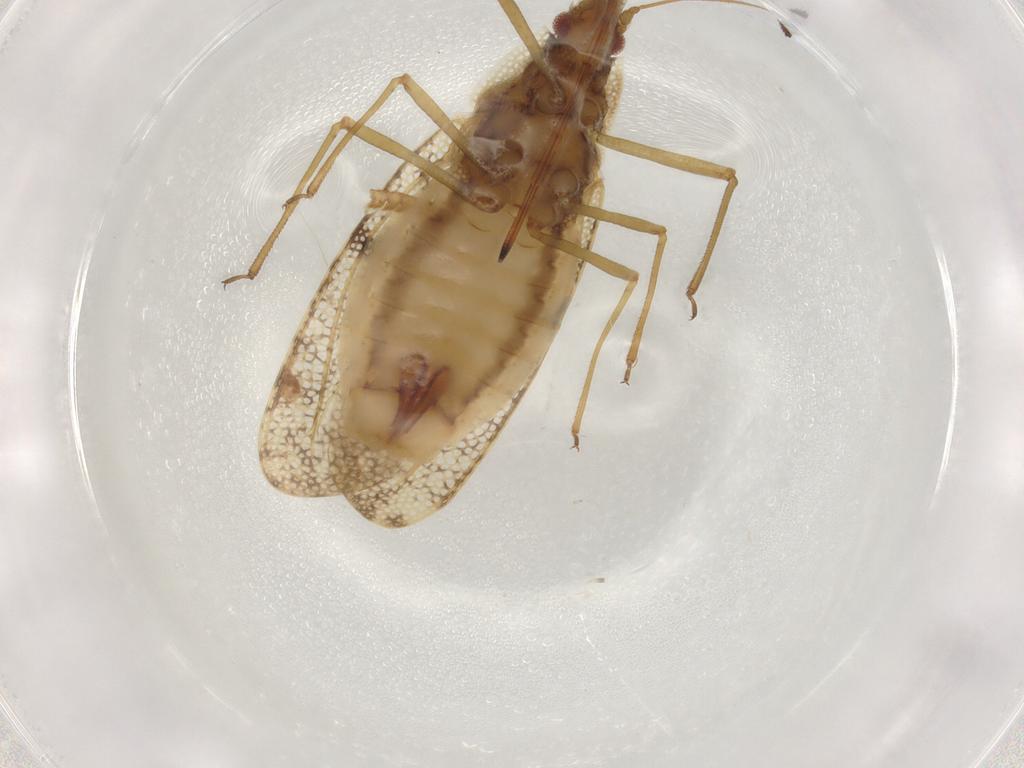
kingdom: Animalia
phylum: Arthropoda
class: Insecta
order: Hemiptera
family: Tingidae
